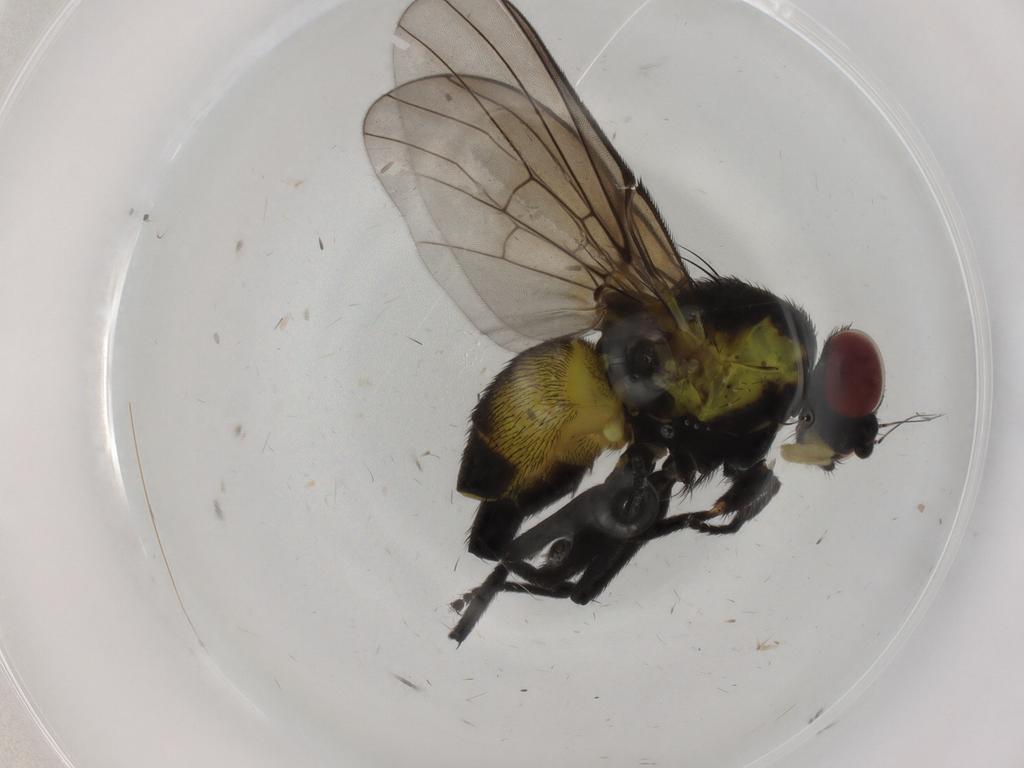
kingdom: Animalia
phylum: Arthropoda
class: Insecta
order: Diptera
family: Agromyzidae
